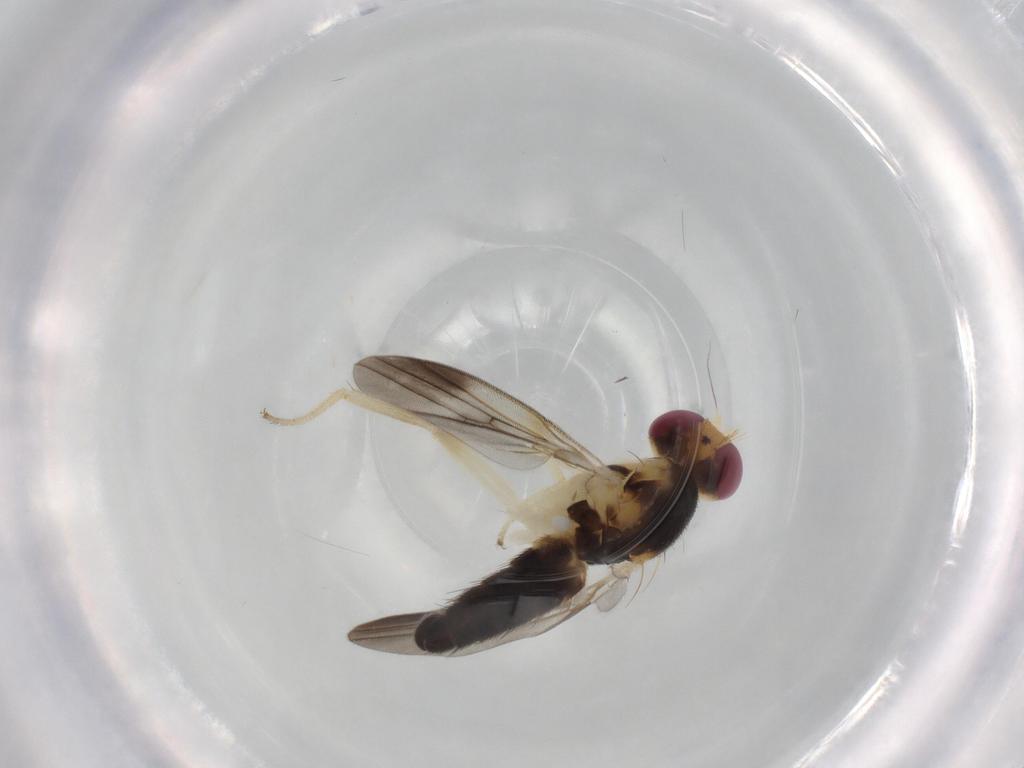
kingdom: Animalia
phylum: Arthropoda
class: Insecta
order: Diptera
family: Clusiidae
